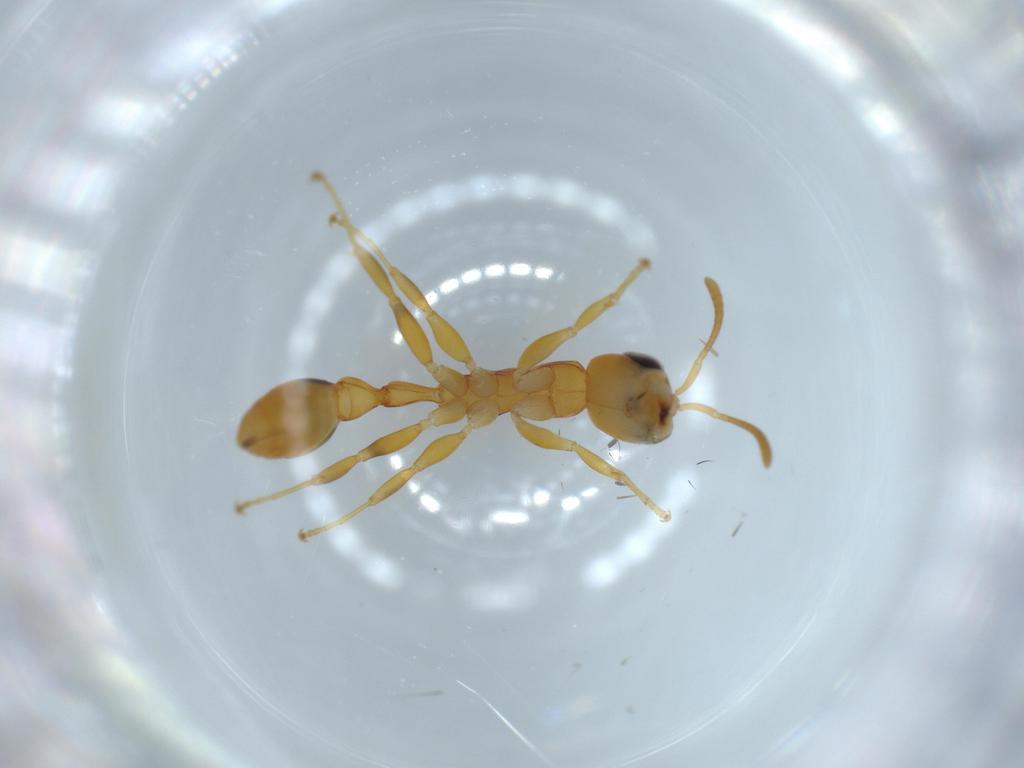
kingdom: Animalia
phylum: Arthropoda
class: Insecta
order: Hymenoptera
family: Formicidae
